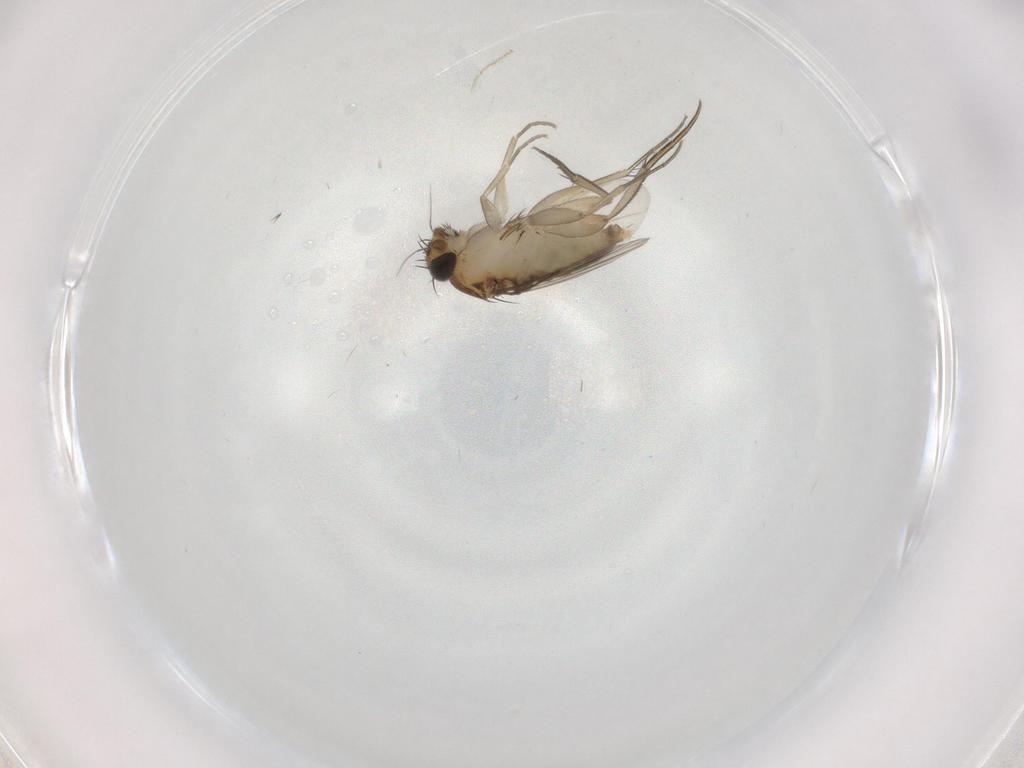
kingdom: Animalia
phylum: Arthropoda
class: Insecta
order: Diptera
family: Phoridae
